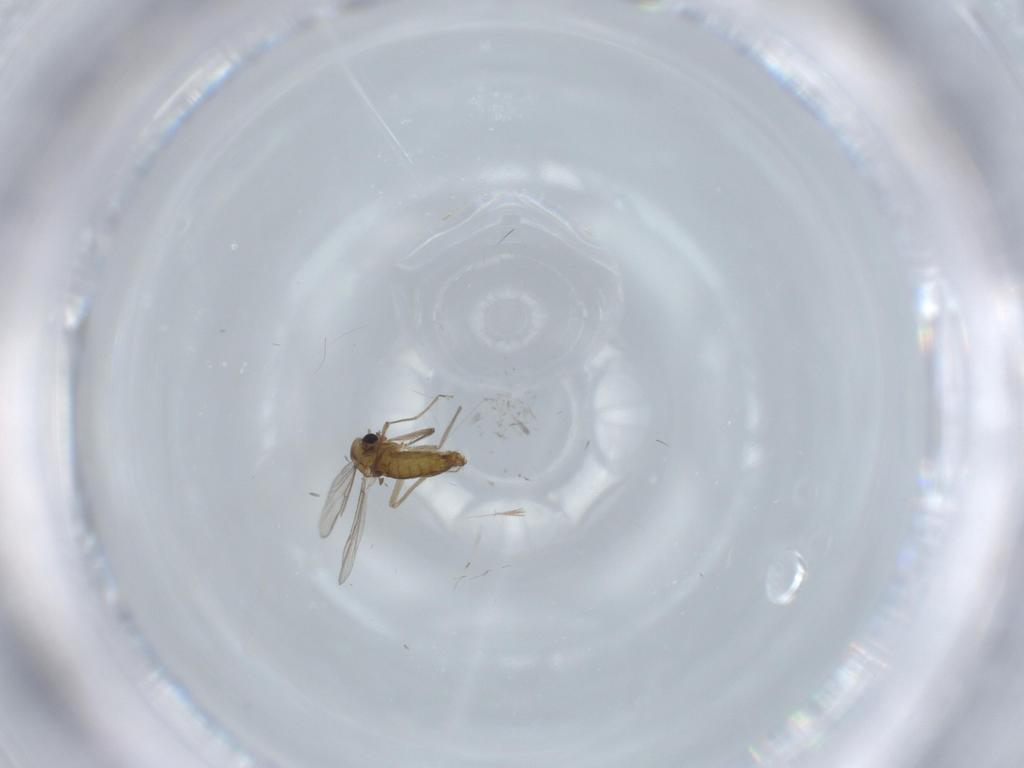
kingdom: Animalia
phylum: Arthropoda
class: Insecta
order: Diptera
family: Chironomidae
